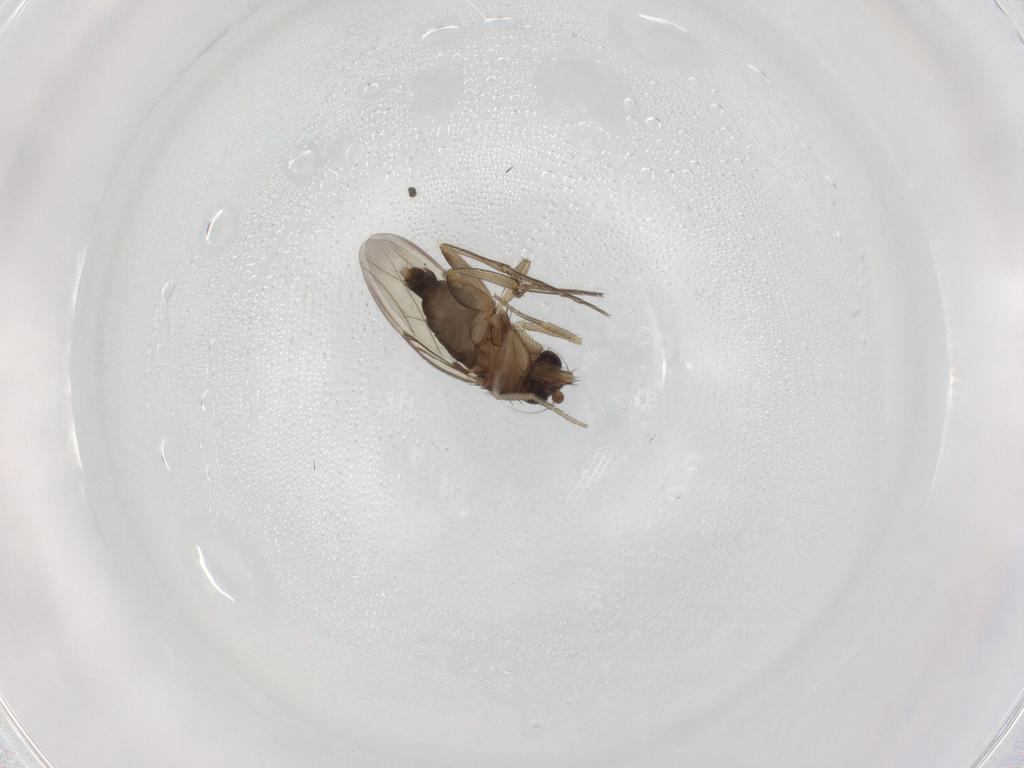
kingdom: Animalia
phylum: Arthropoda
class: Insecta
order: Diptera
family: Phoridae
